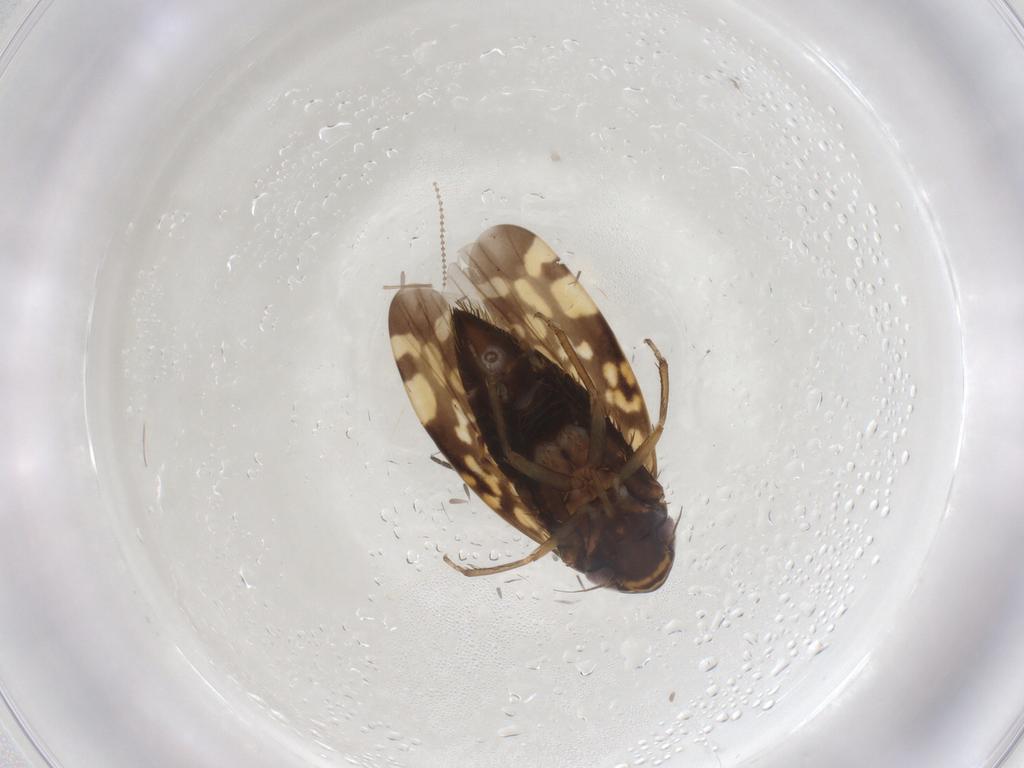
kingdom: Animalia
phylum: Arthropoda
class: Insecta
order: Hemiptera
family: Cicadellidae
